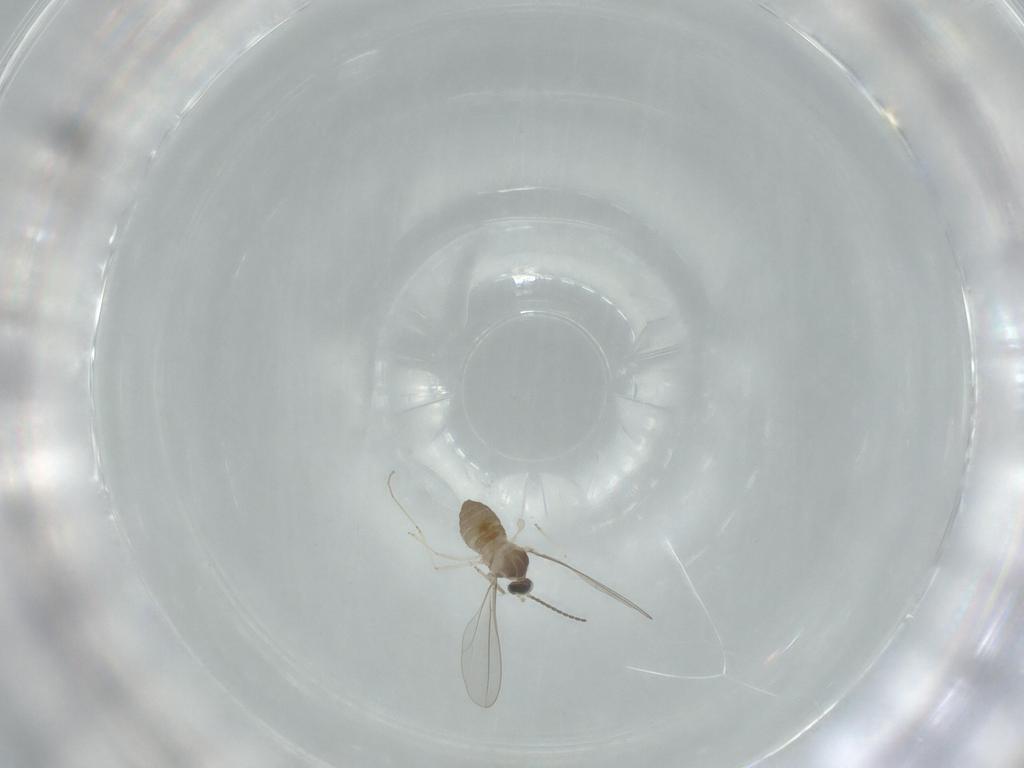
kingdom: Animalia
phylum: Arthropoda
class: Insecta
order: Diptera
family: Cecidomyiidae
